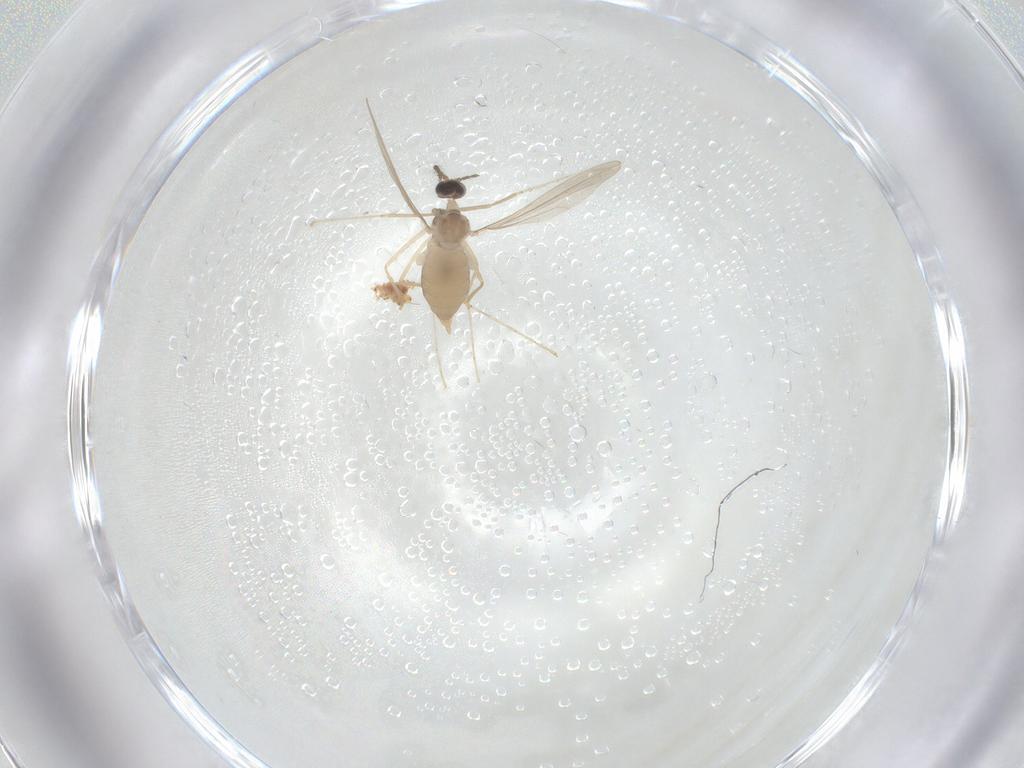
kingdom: Animalia
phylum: Arthropoda
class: Insecta
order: Diptera
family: Cecidomyiidae
